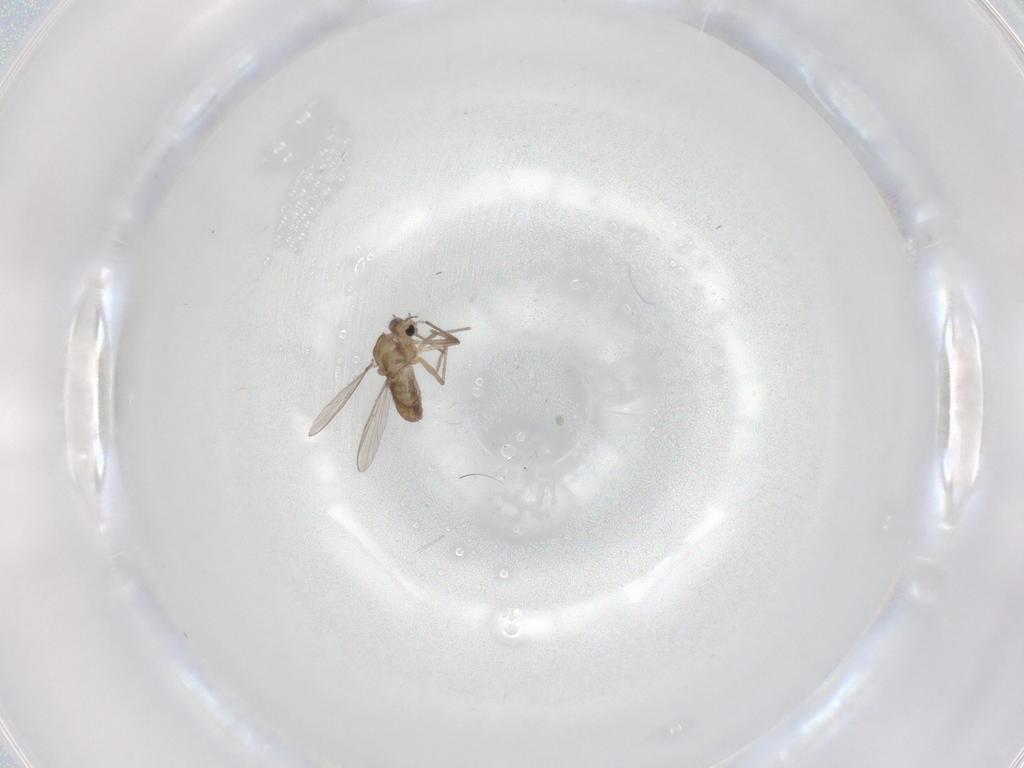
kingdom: Animalia
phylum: Arthropoda
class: Insecta
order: Diptera
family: Chironomidae
